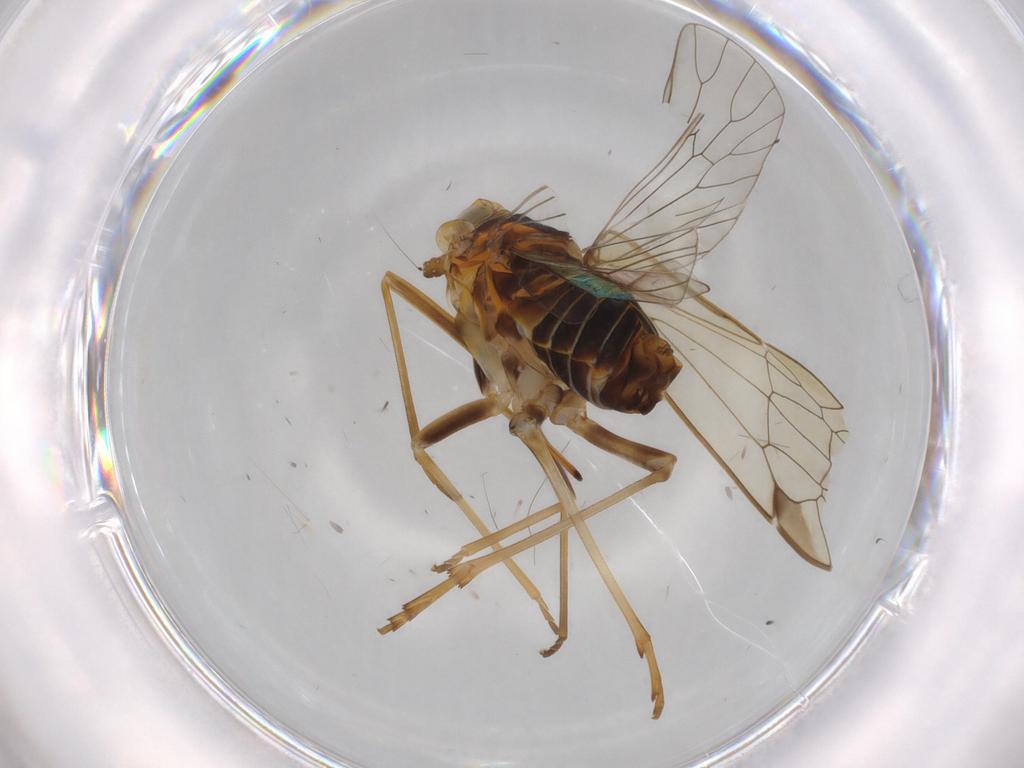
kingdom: Animalia
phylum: Arthropoda
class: Insecta
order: Hemiptera
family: Kinnaridae
